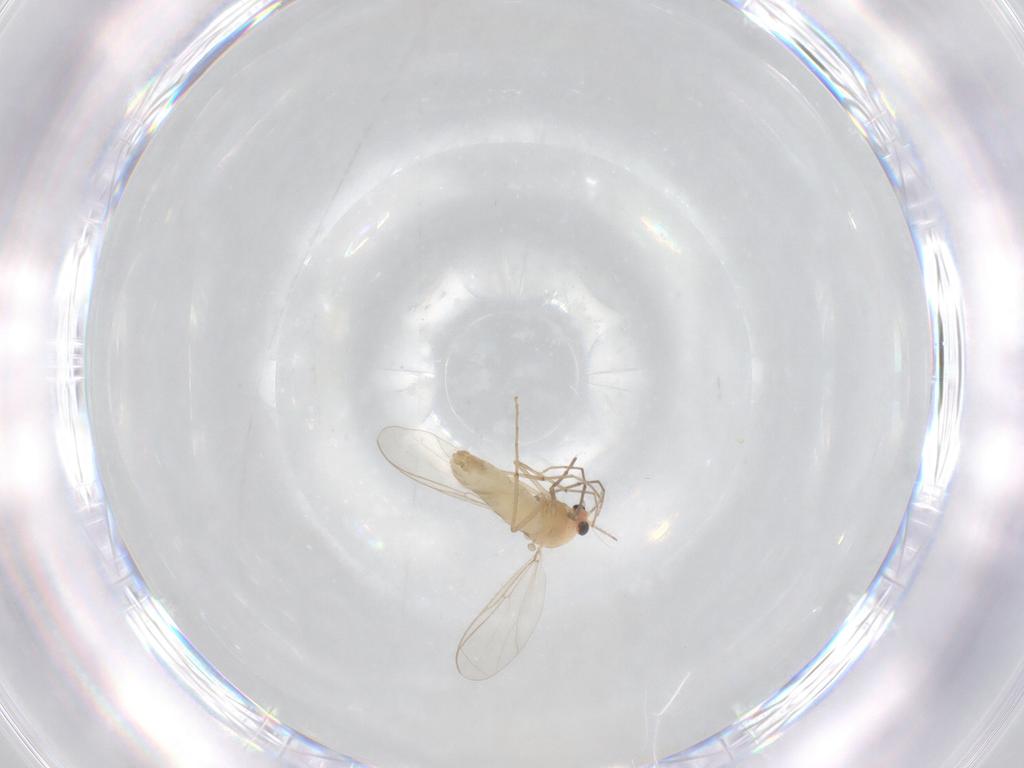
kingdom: Animalia
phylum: Arthropoda
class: Insecta
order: Diptera
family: Chironomidae
